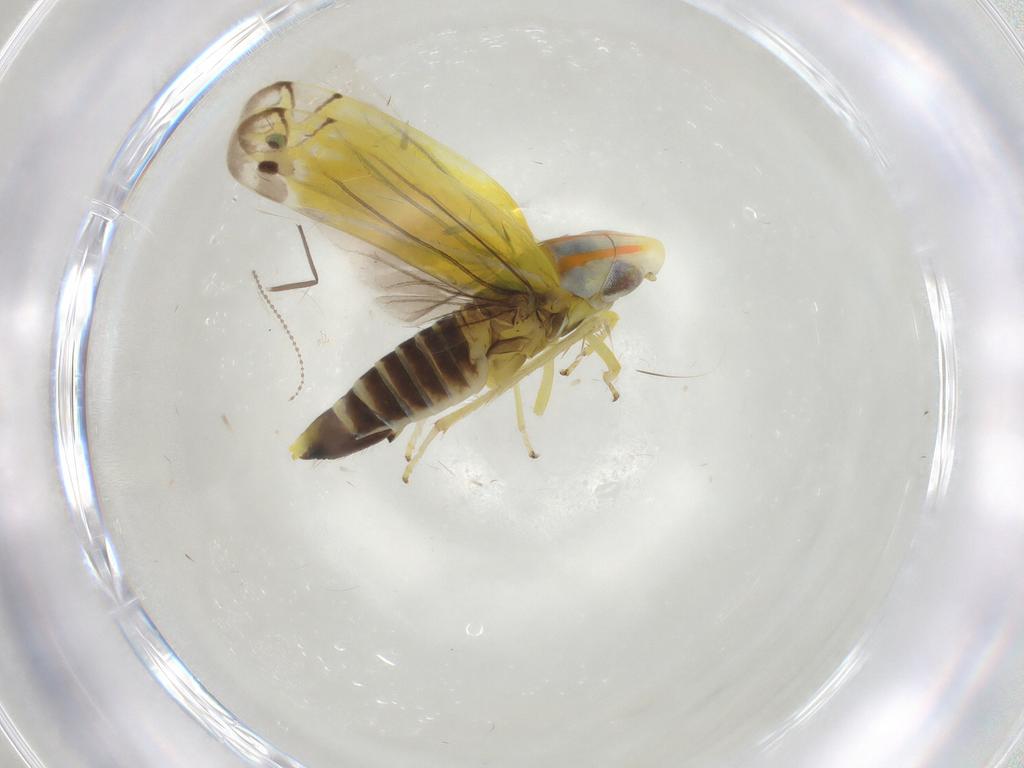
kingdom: Animalia
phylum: Arthropoda
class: Insecta
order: Hemiptera
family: Cicadellidae
